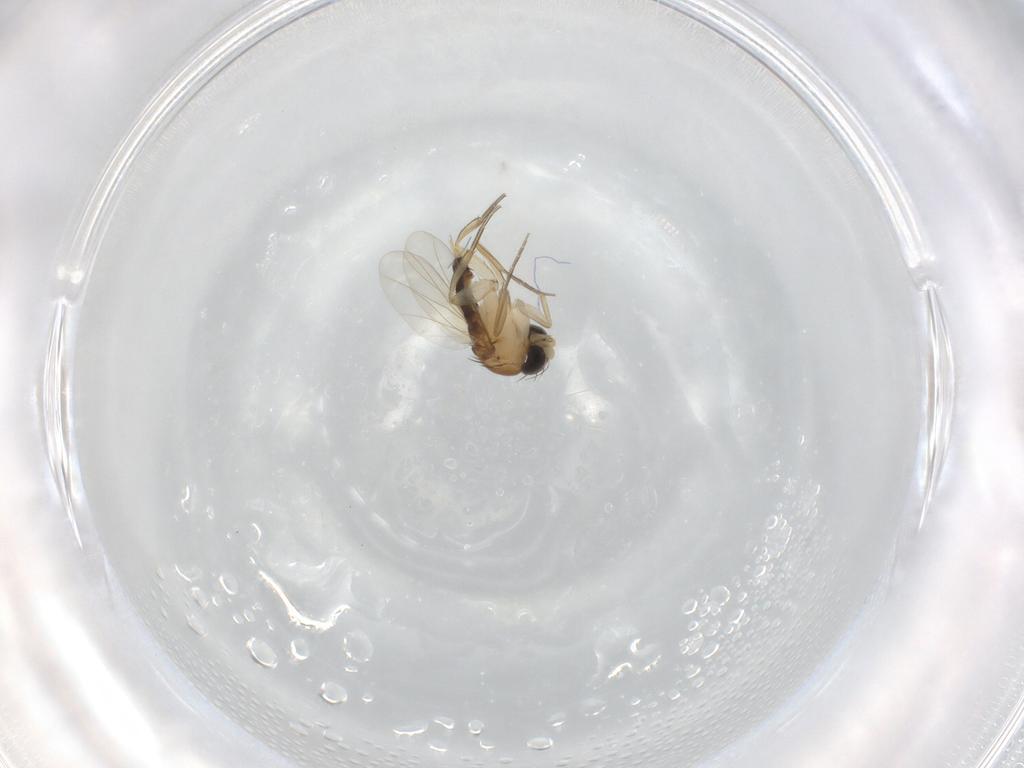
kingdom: Animalia
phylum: Arthropoda
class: Insecta
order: Diptera
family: Phoridae
